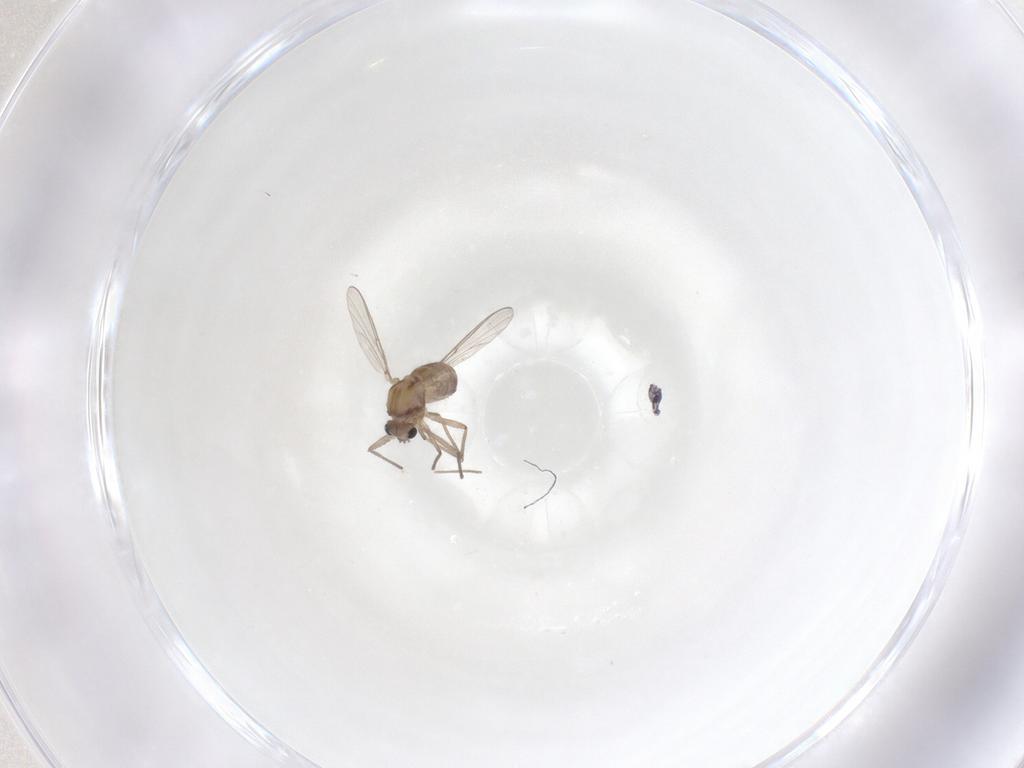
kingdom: Animalia
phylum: Arthropoda
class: Insecta
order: Diptera
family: Chironomidae
